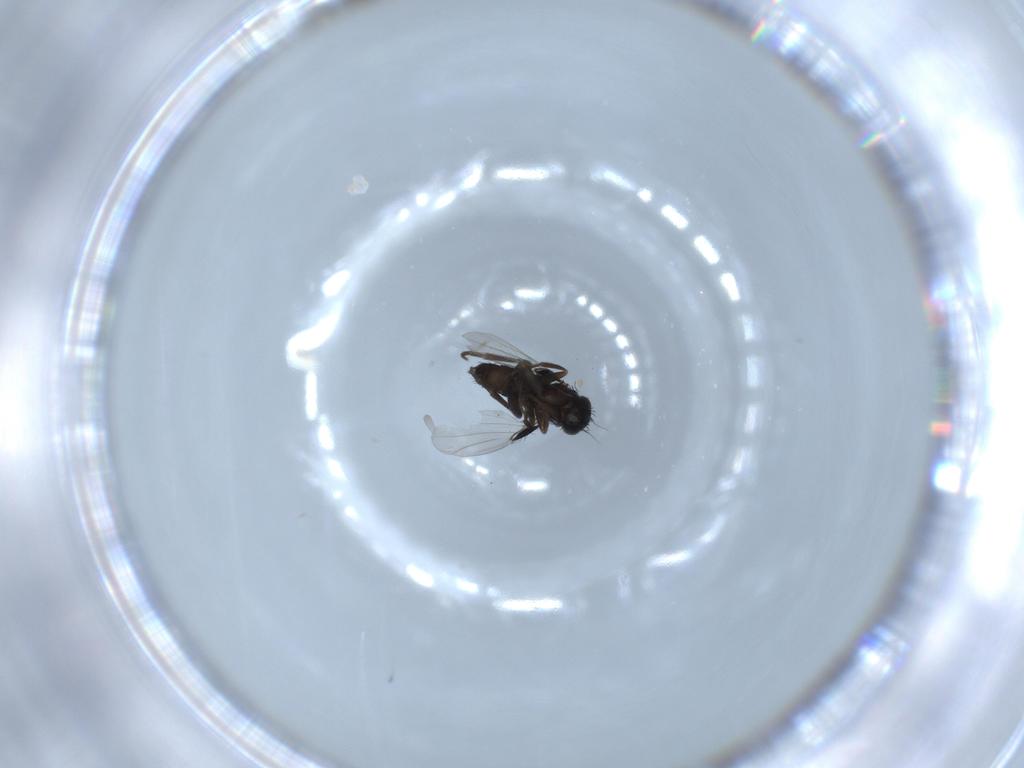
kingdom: Animalia
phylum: Arthropoda
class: Insecta
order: Diptera
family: Phoridae
